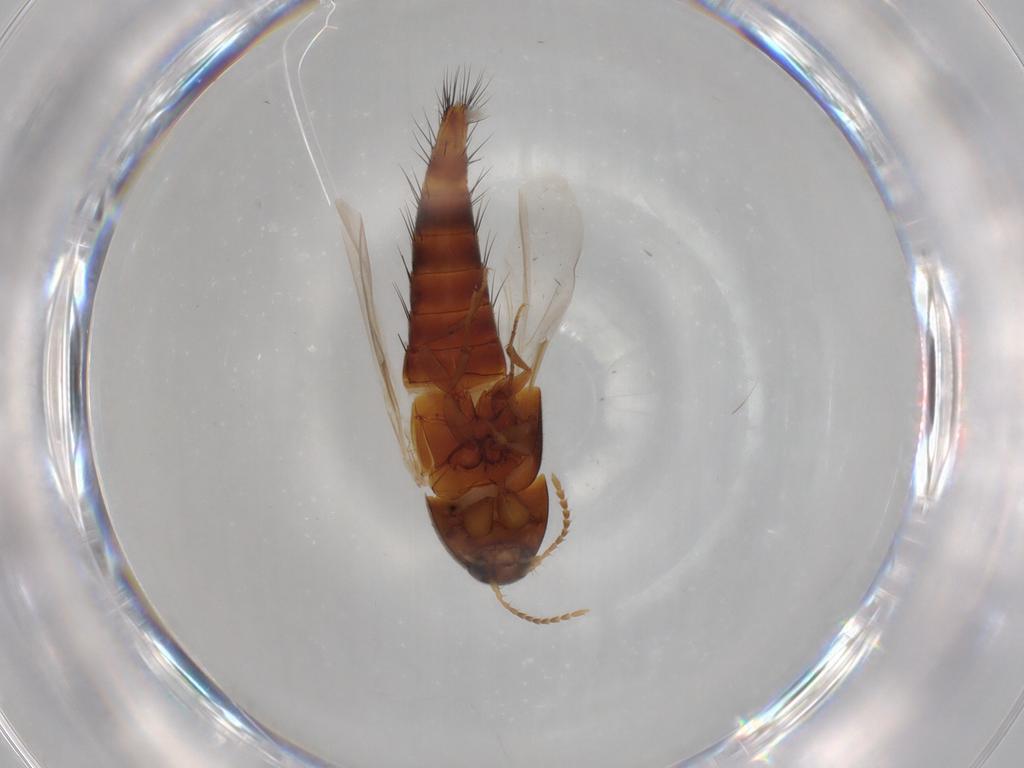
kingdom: Animalia
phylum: Arthropoda
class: Insecta
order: Coleoptera
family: Staphylinidae
